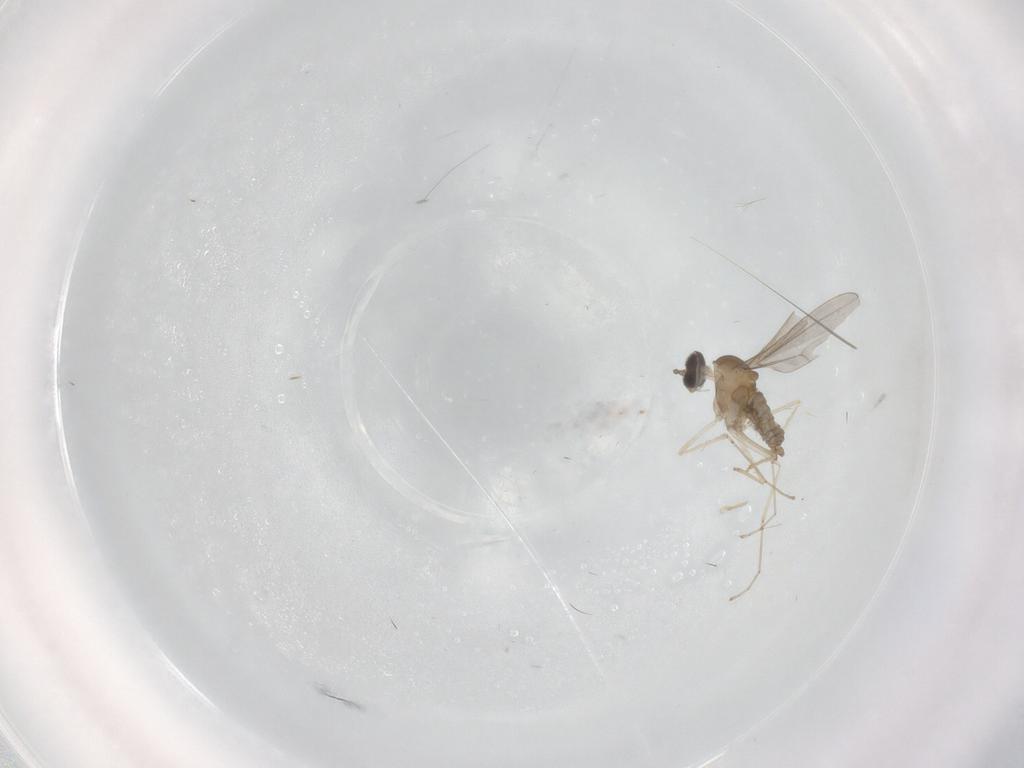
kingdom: Animalia
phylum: Arthropoda
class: Insecta
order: Diptera
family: Cecidomyiidae
